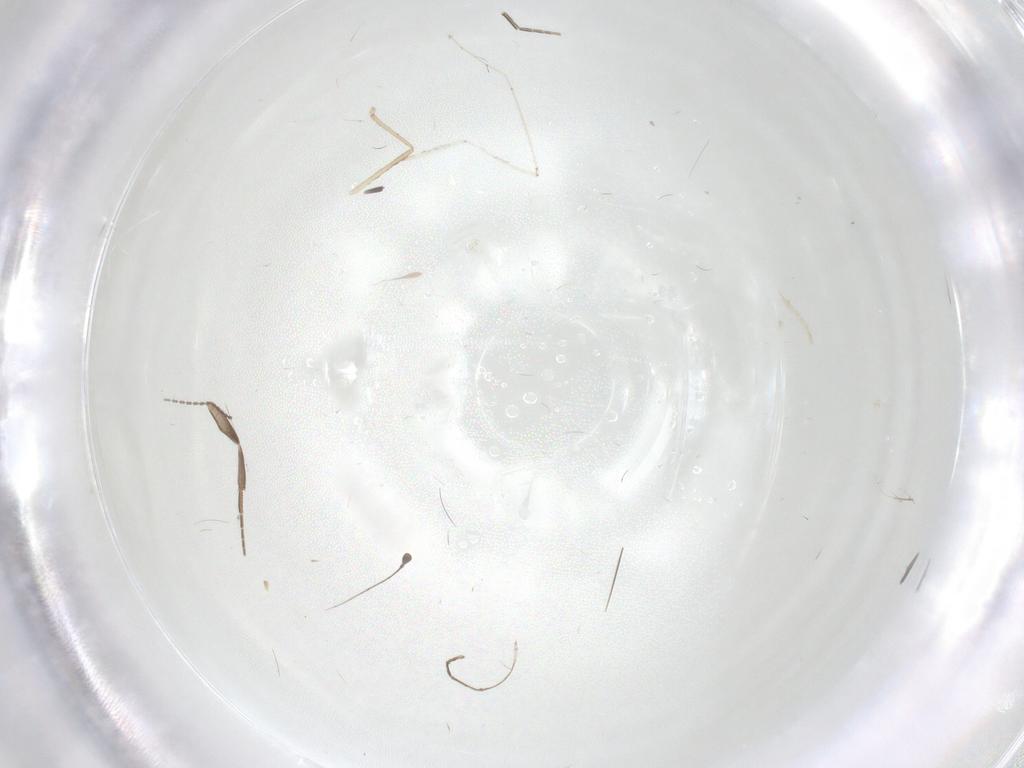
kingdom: Animalia
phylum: Arthropoda
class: Insecta
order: Diptera
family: Cecidomyiidae
